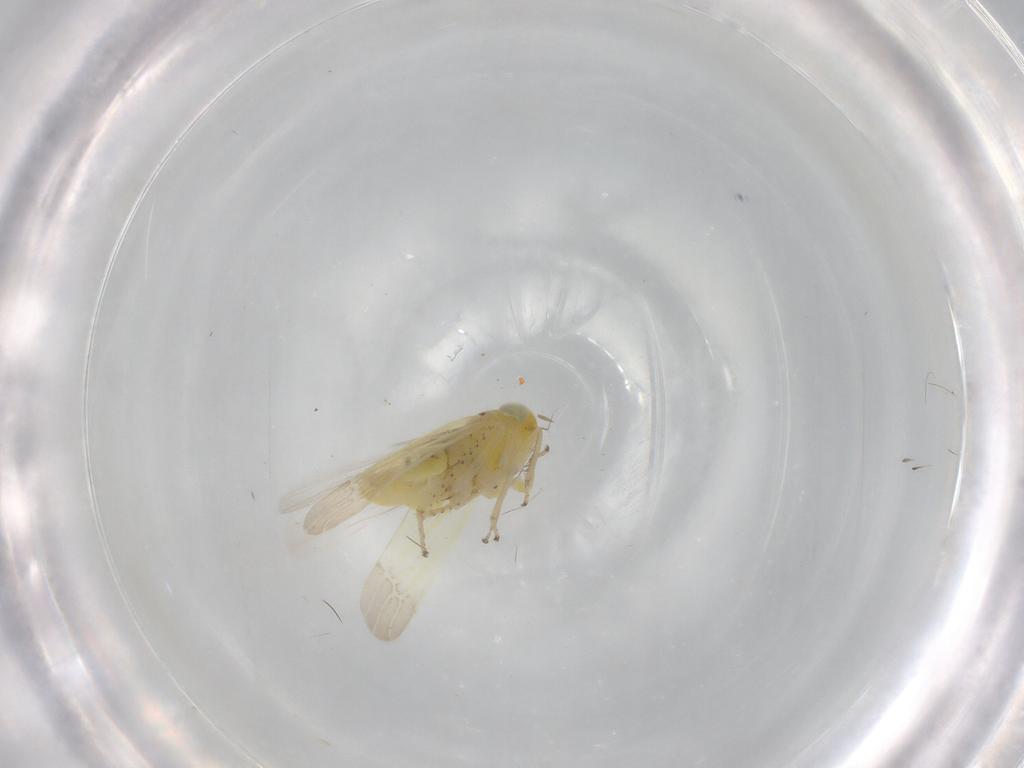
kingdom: Animalia
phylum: Arthropoda
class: Insecta
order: Hemiptera
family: Cicadellidae
